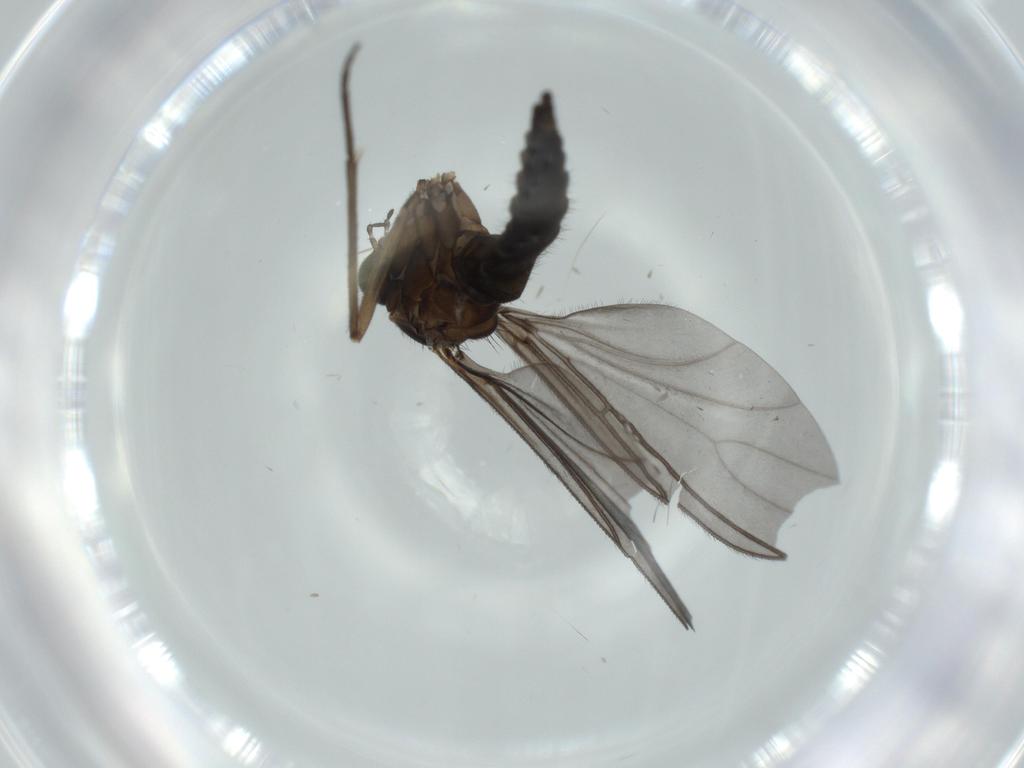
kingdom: Animalia
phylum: Arthropoda
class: Insecta
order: Diptera
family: Sciaridae
